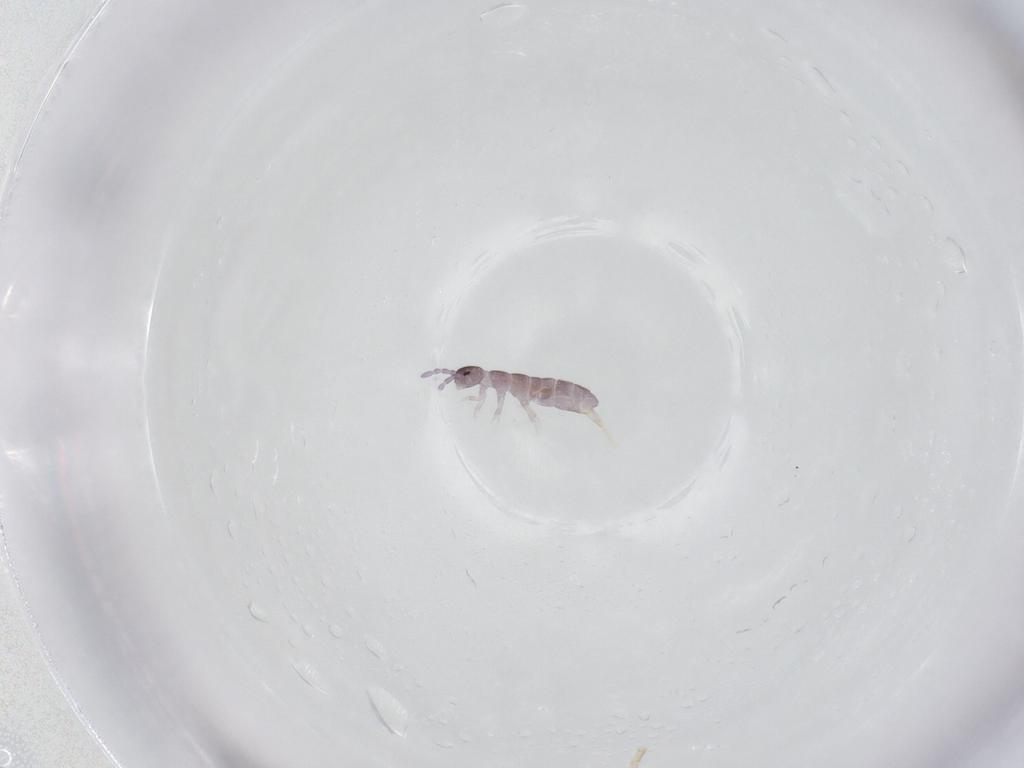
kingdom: Animalia
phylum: Arthropoda
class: Collembola
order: Entomobryomorpha
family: Isotomidae
